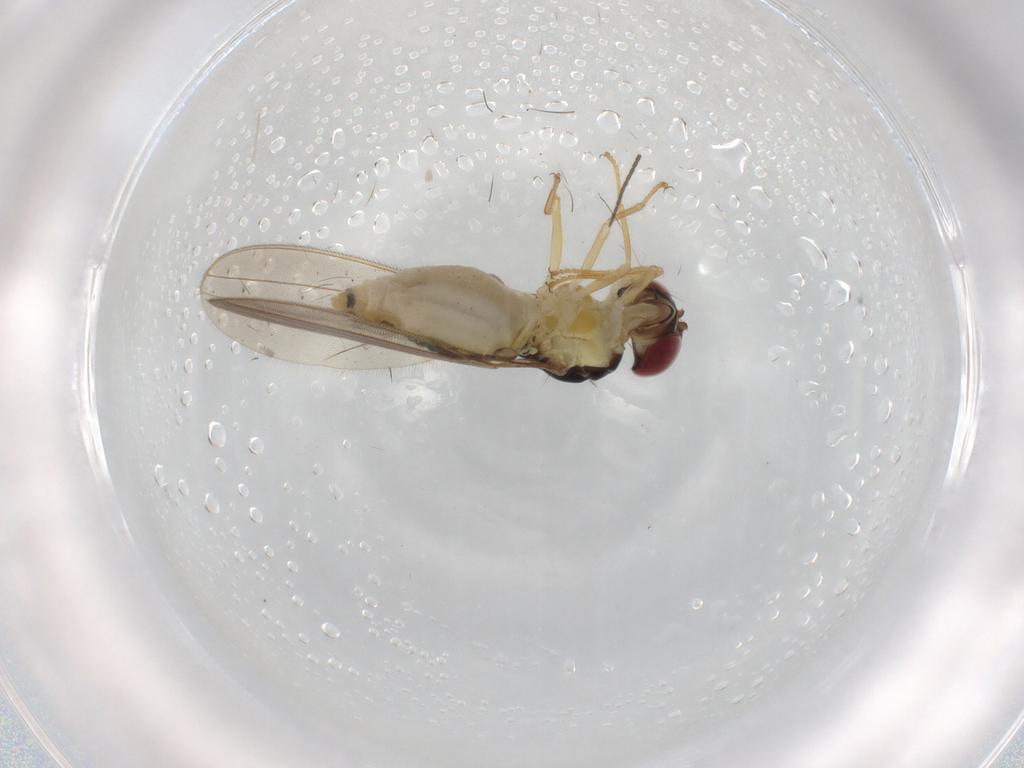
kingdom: Animalia
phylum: Arthropoda
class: Insecta
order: Diptera
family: Asteiidae
